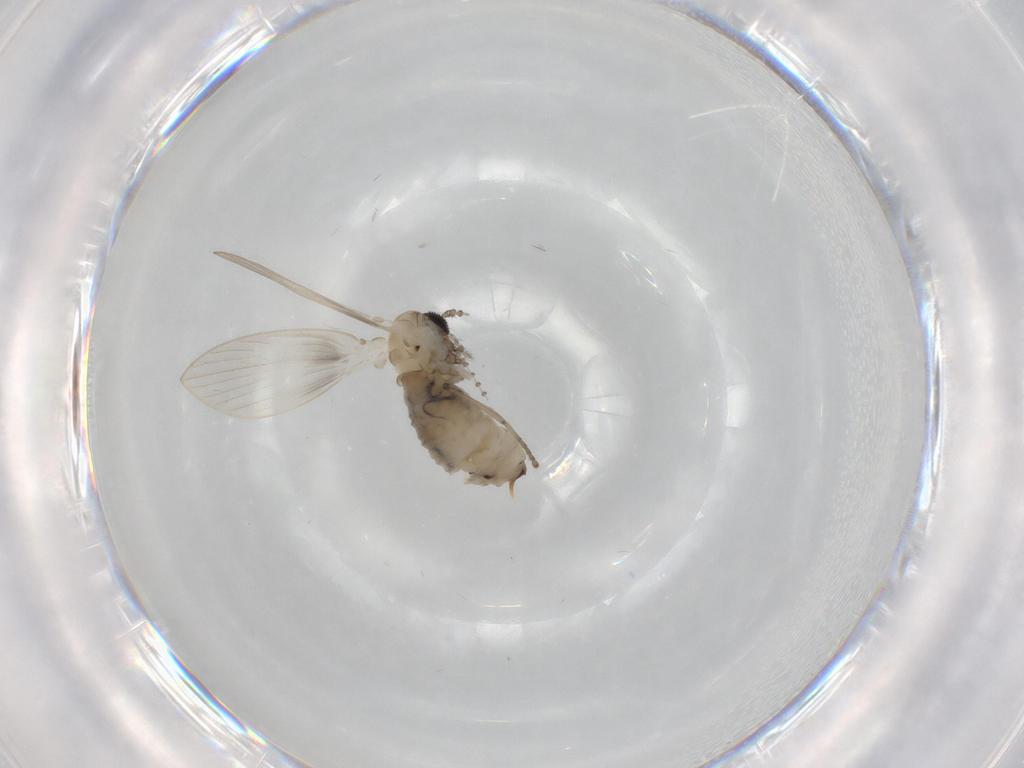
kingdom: Animalia
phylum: Arthropoda
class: Insecta
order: Diptera
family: Psychodidae
